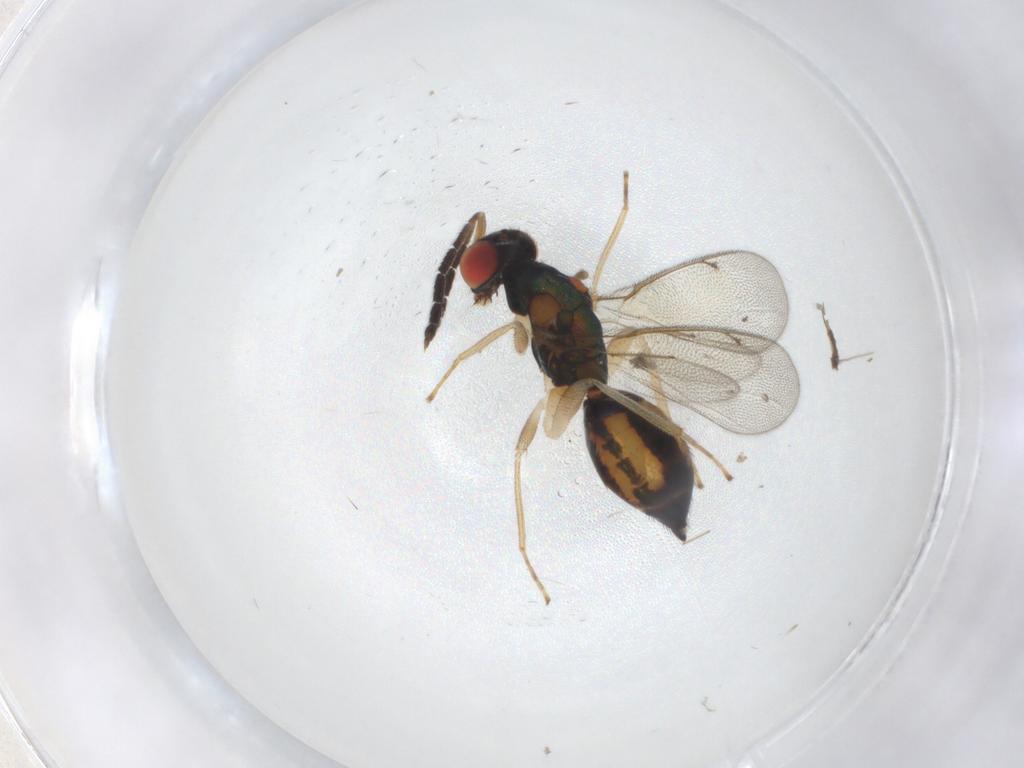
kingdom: Animalia
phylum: Arthropoda
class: Insecta
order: Hymenoptera
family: Eulophidae
